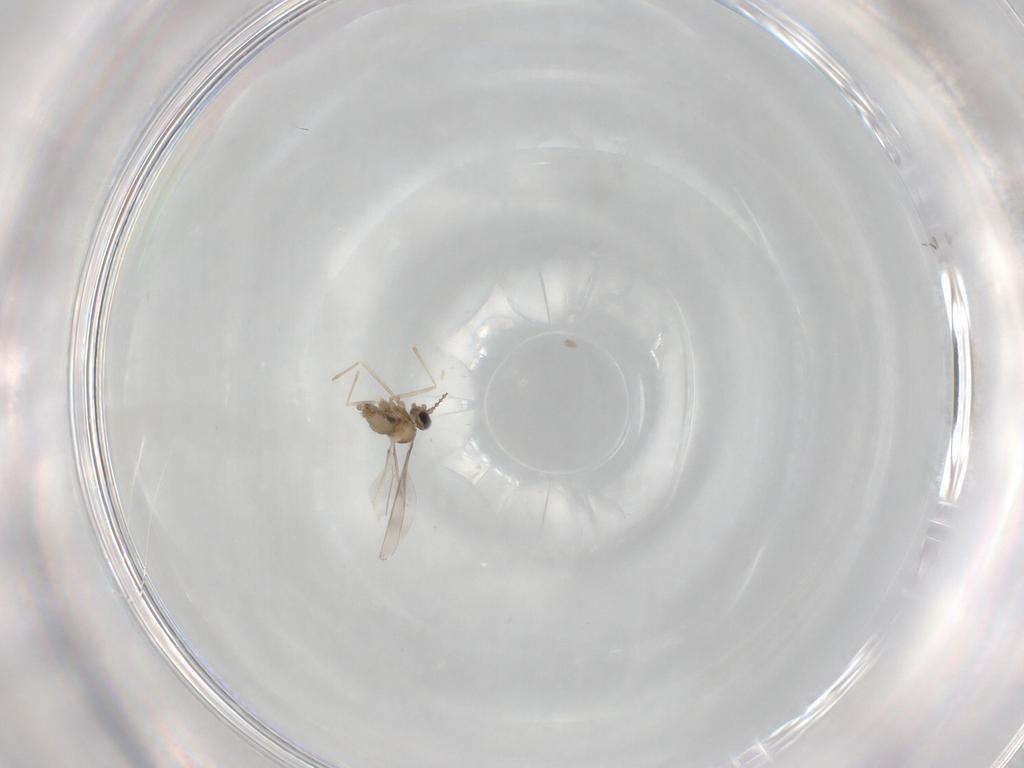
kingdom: Animalia
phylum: Arthropoda
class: Insecta
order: Diptera
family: Cecidomyiidae
